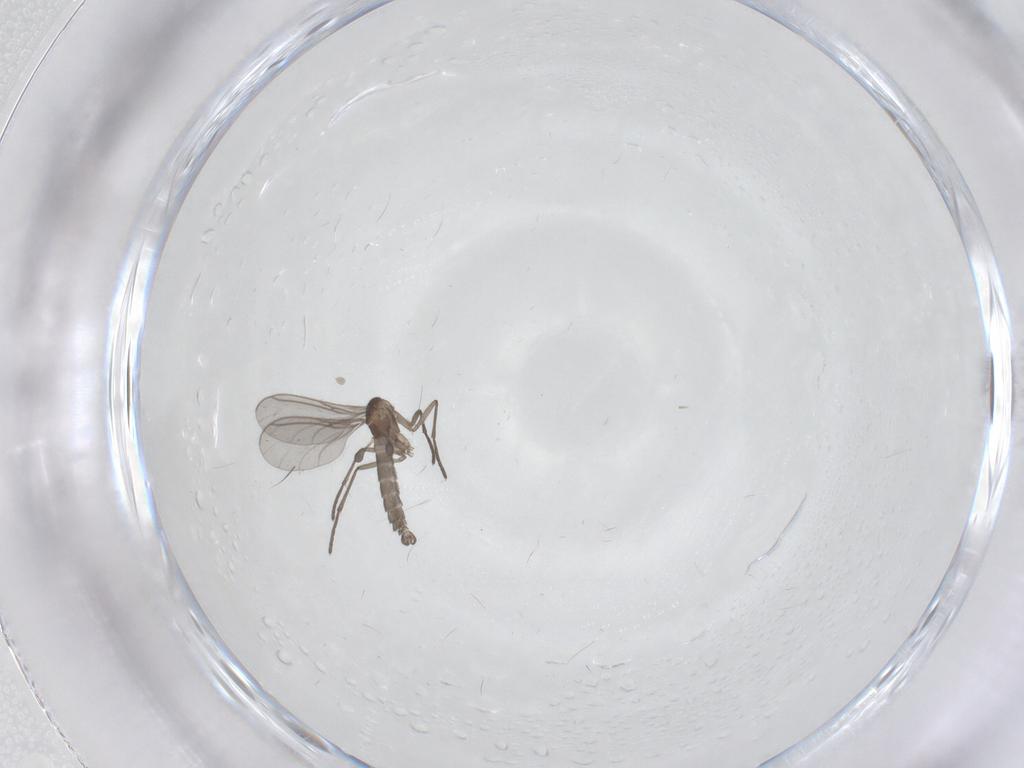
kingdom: Animalia
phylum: Arthropoda
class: Insecta
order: Diptera
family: Sciaridae
